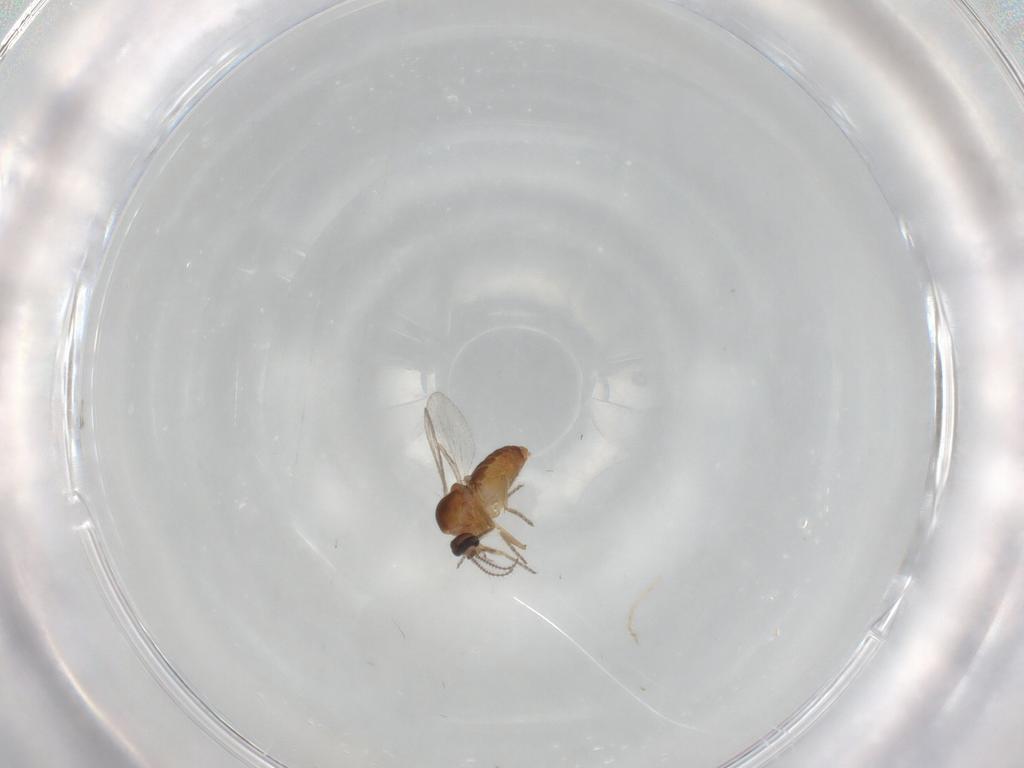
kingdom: Animalia
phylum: Arthropoda
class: Insecta
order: Diptera
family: Ceratopogonidae
